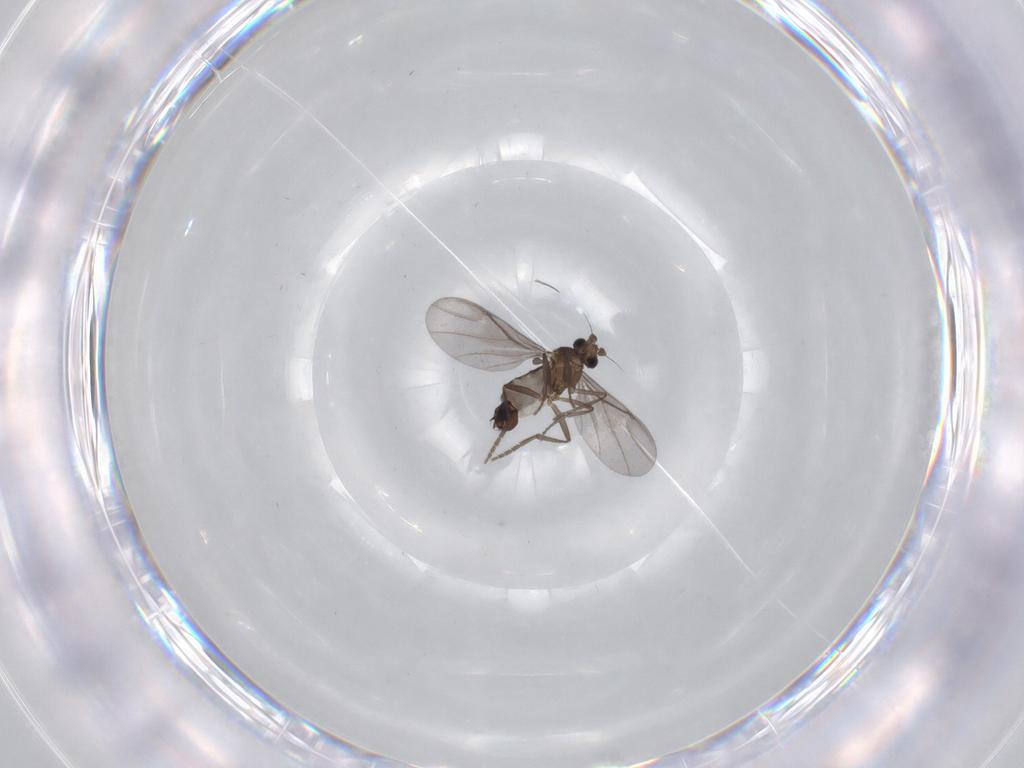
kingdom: Animalia
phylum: Arthropoda
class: Insecta
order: Diptera
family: Phoridae
